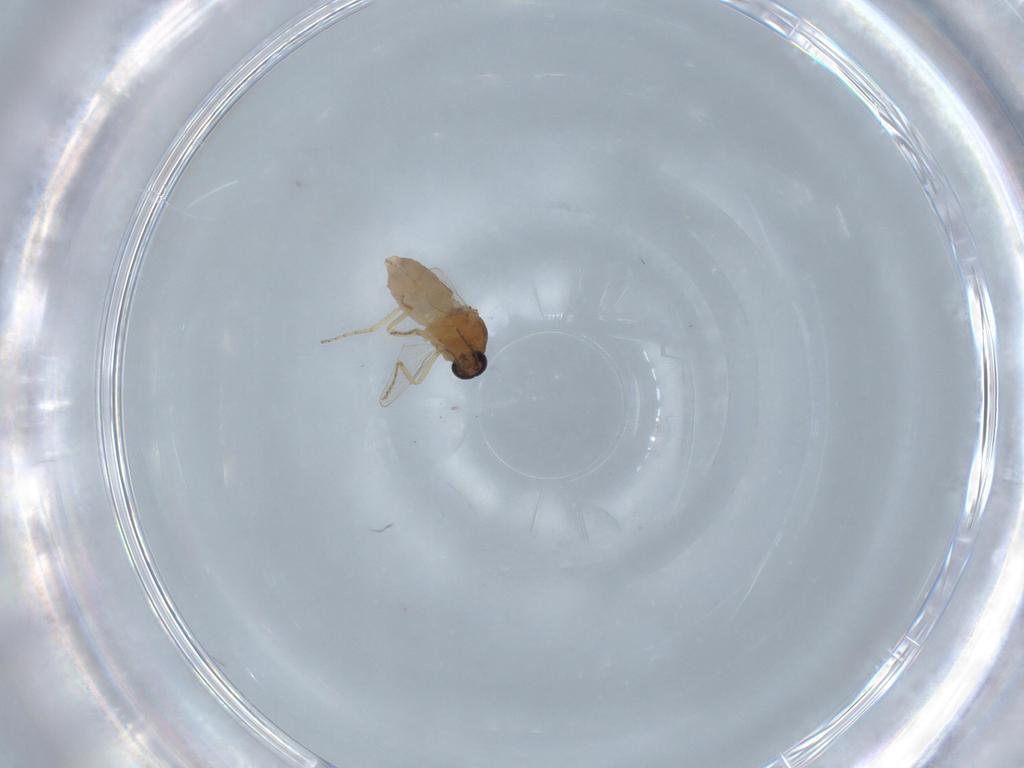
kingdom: Animalia
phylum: Arthropoda
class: Insecta
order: Diptera
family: Ceratopogonidae
